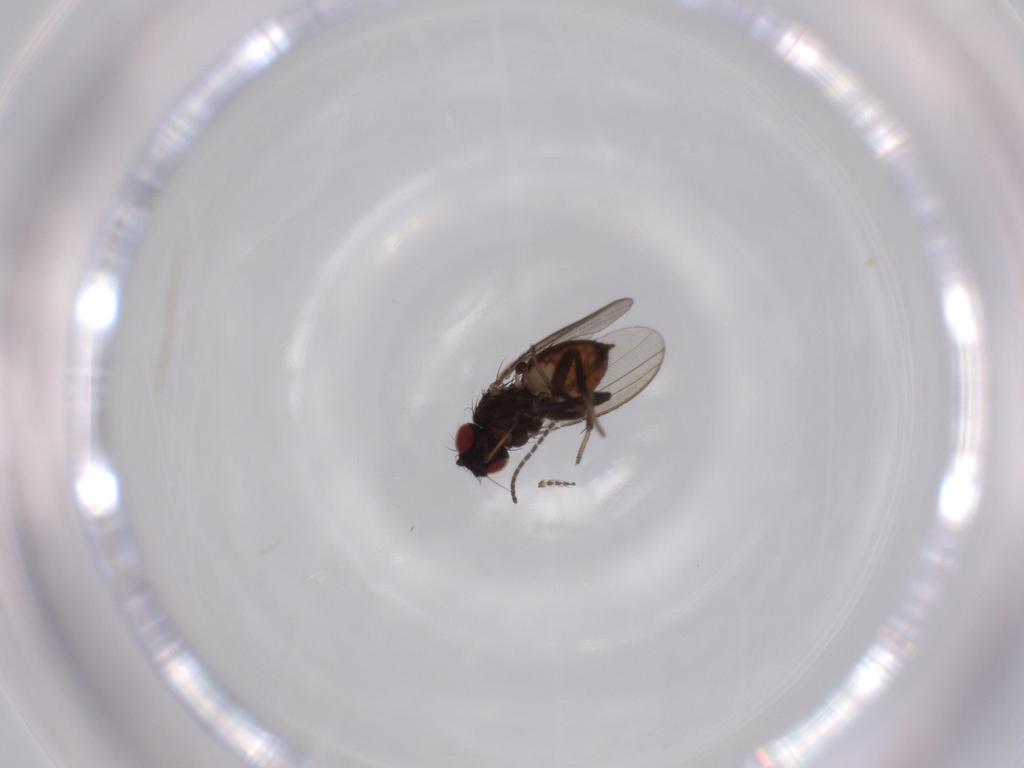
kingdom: Animalia
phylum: Arthropoda
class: Insecta
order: Diptera
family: Milichiidae
